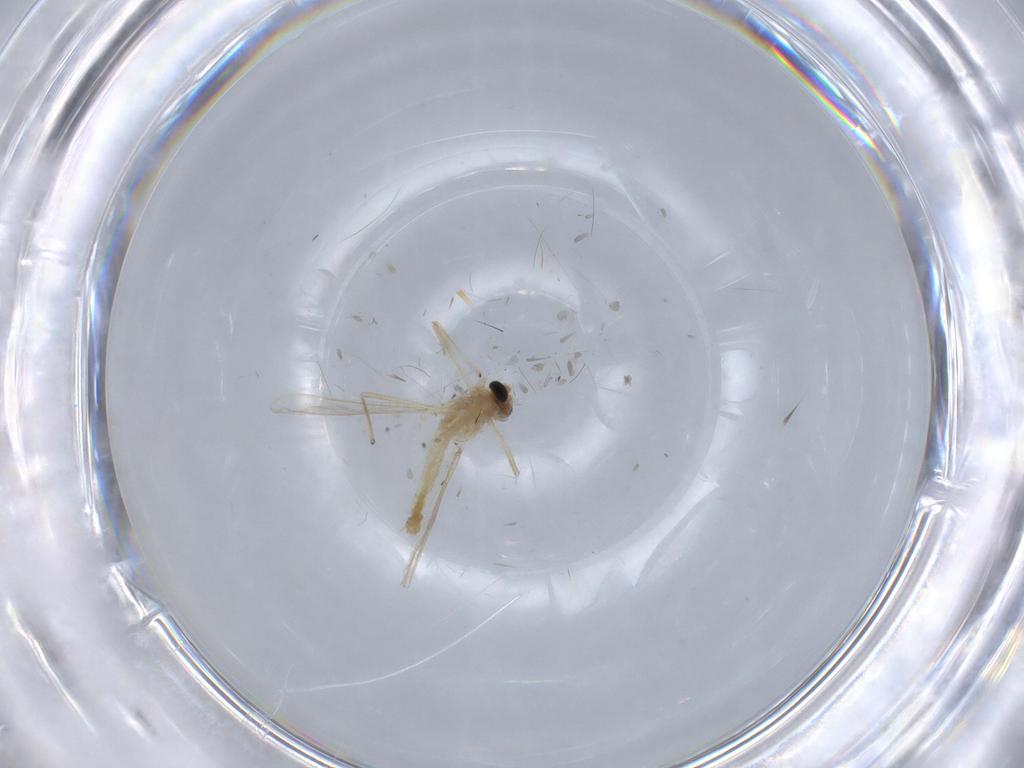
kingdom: Animalia
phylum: Arthropoda
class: Insecta
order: Diptera
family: Chironomidae
